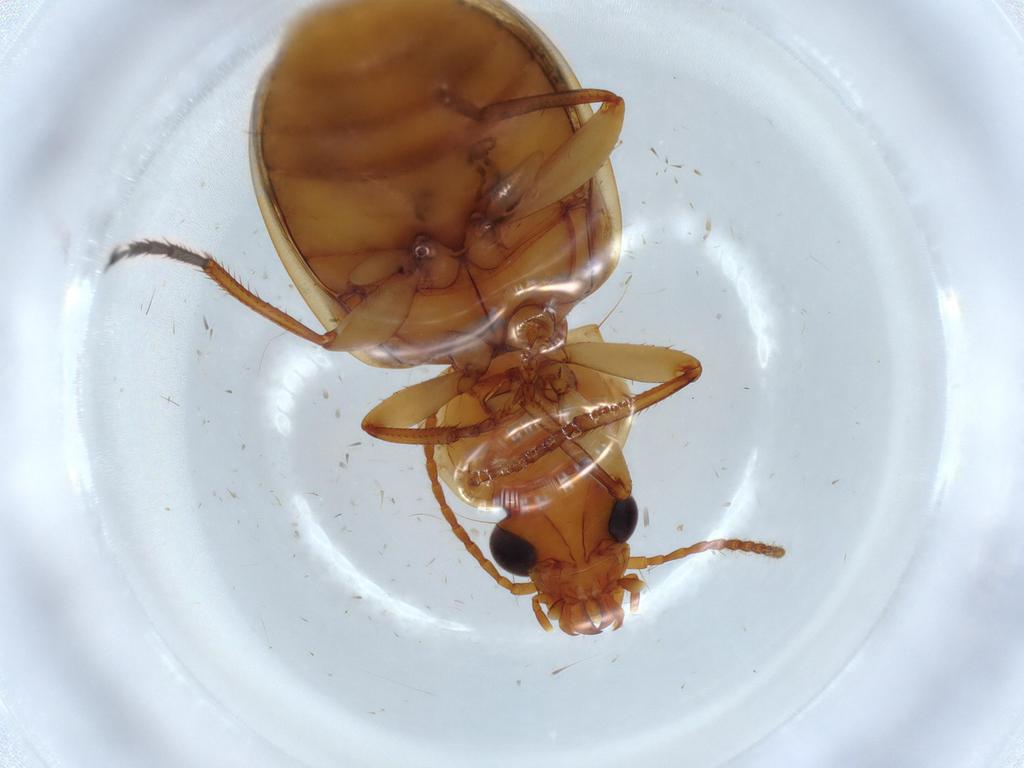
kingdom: Animalia
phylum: Arthropoda
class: Insecta
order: Coleoptera
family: Carabidae
